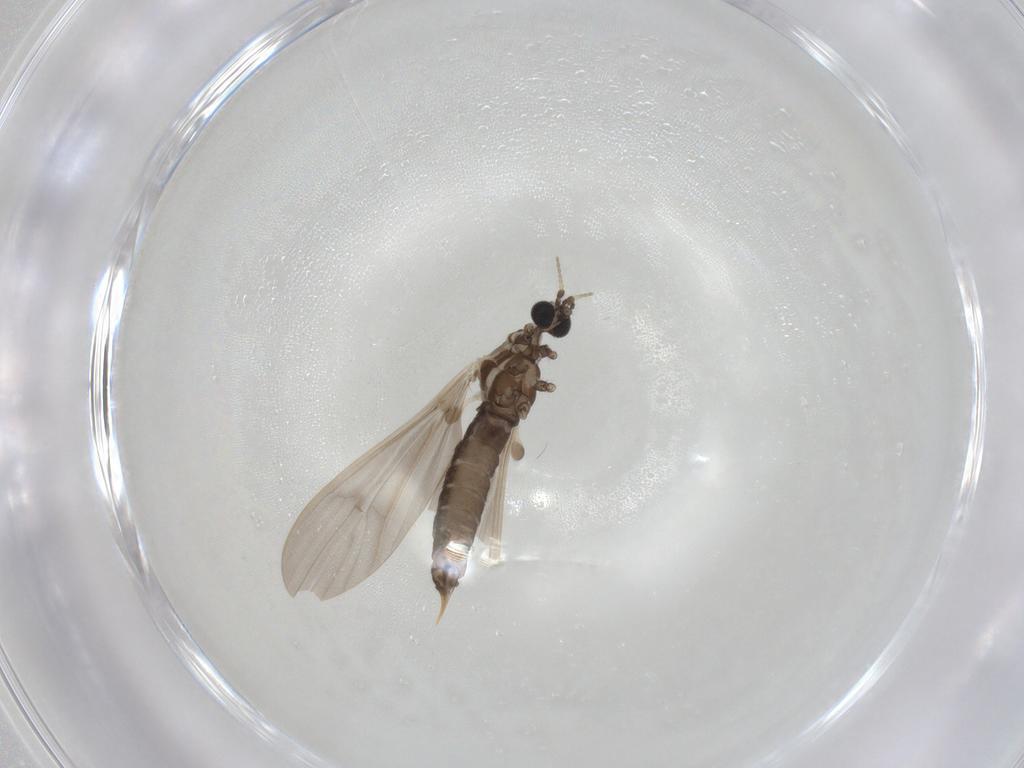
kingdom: Animalia
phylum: Arthropoda
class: Insecta
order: Diptera
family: Limoniidae
